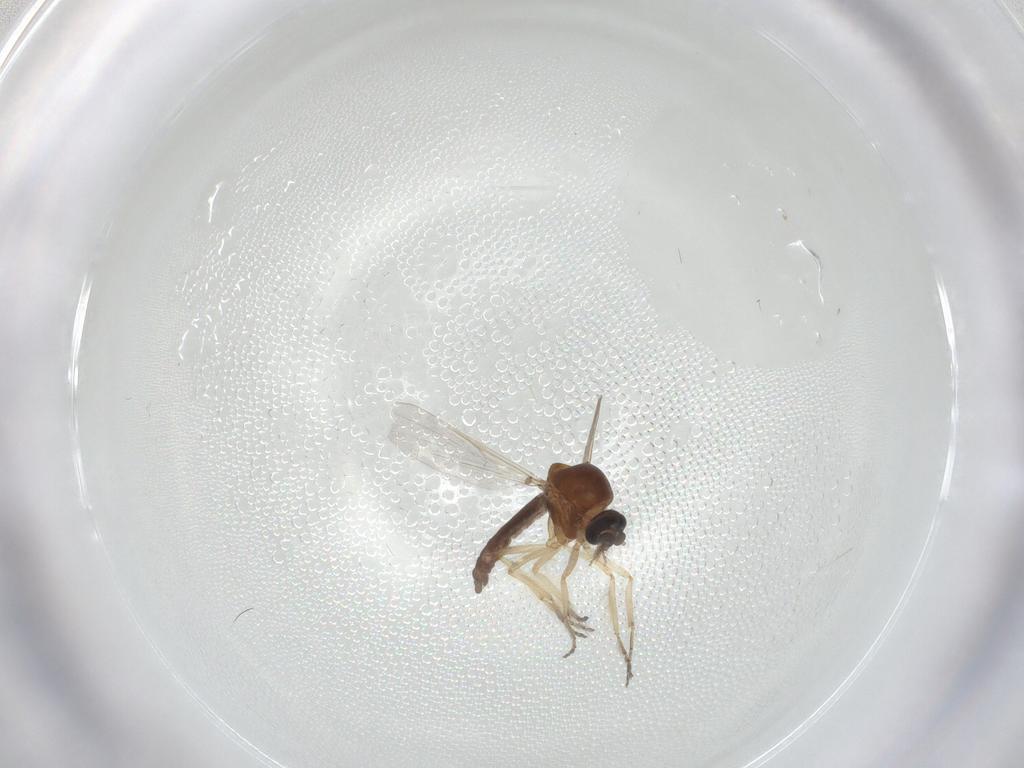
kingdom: Animalia
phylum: Arthropoda
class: Insecta
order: Diptera
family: Ceratopogonidae
